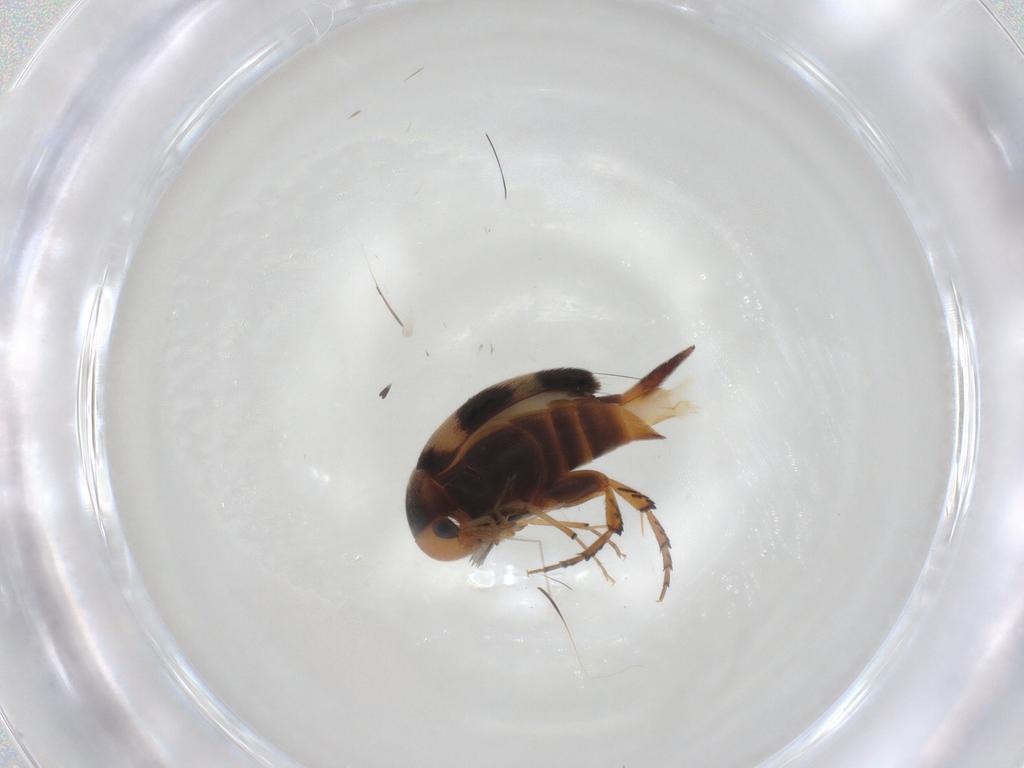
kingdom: Animalia
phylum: Arthropoda
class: Insecta
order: Coleoptera
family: Mordellidae
